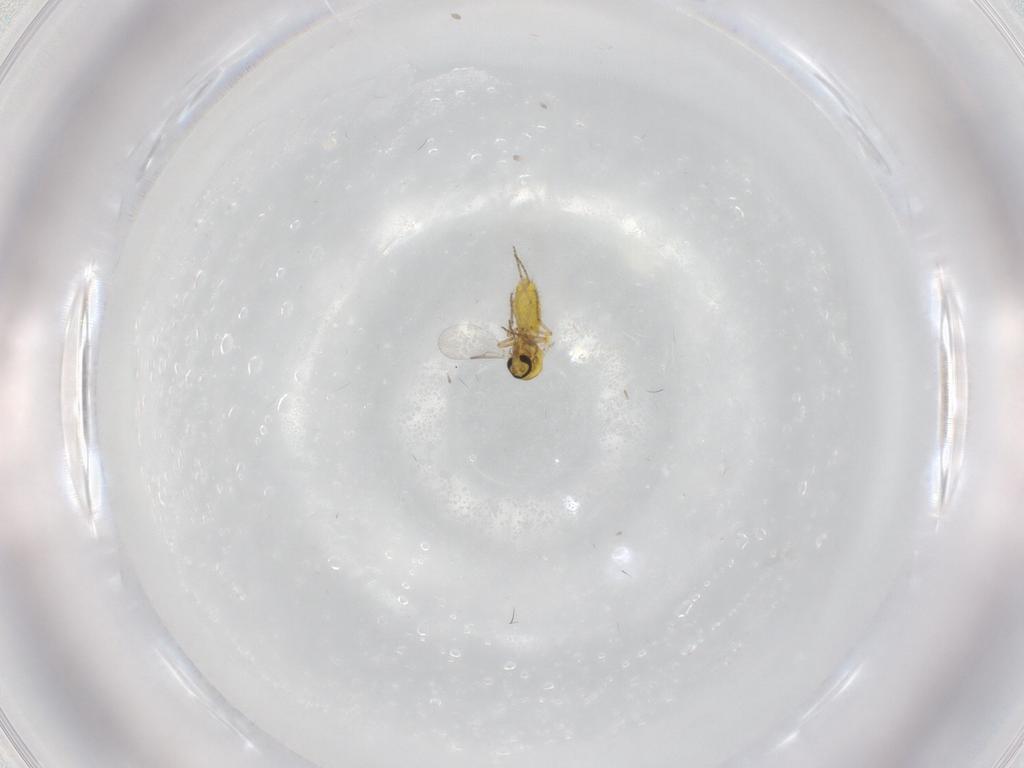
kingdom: Animalia
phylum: Arthropoda
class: Insecta
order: Diptera
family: Ceratopogonidae
